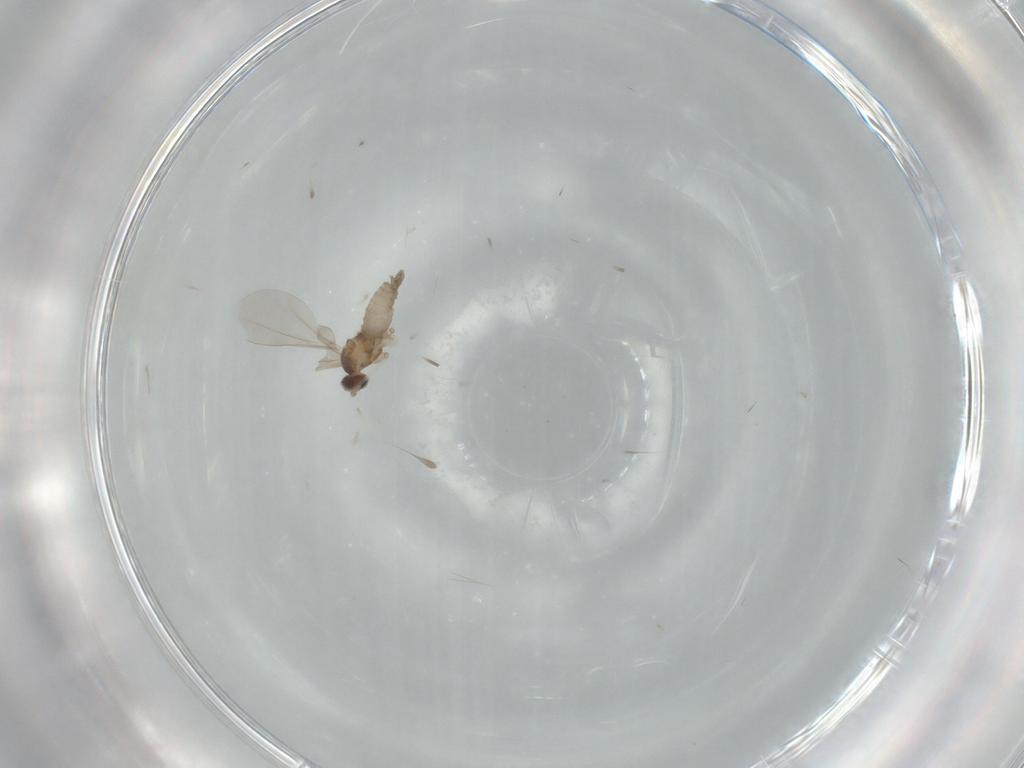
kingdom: Animalia
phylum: Arthropoda
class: Insecta
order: Diptera
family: Cecidomyiidae
